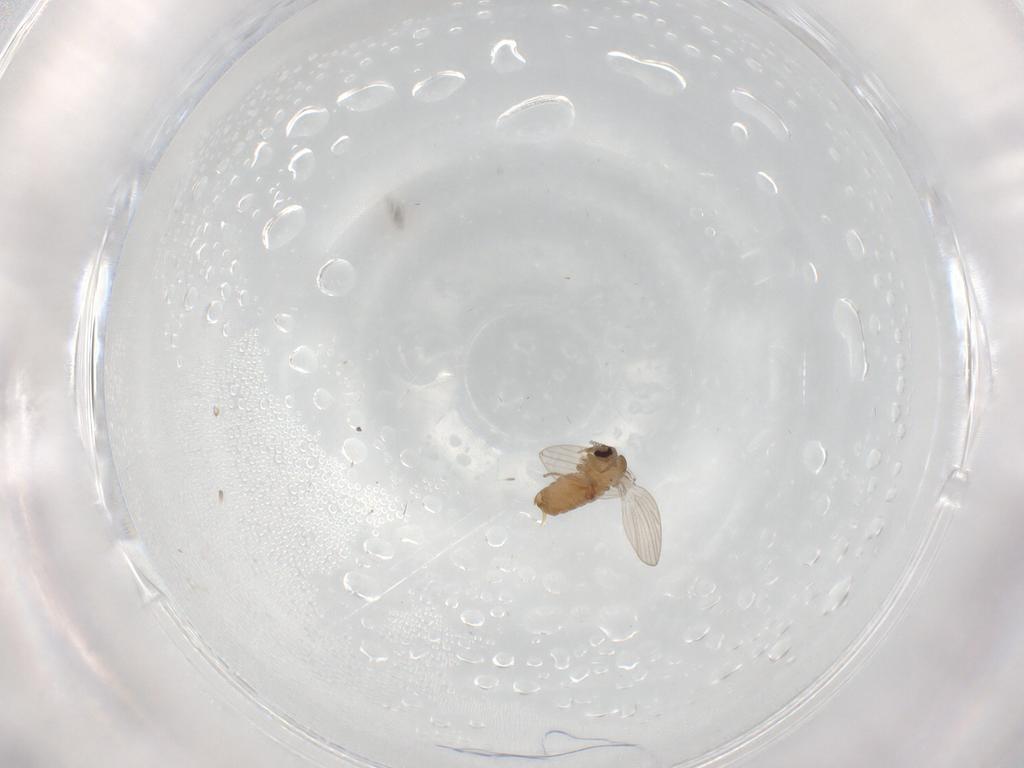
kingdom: Animalia
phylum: Arthropoda
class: Insecta
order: Diptera
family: Psychodidae
